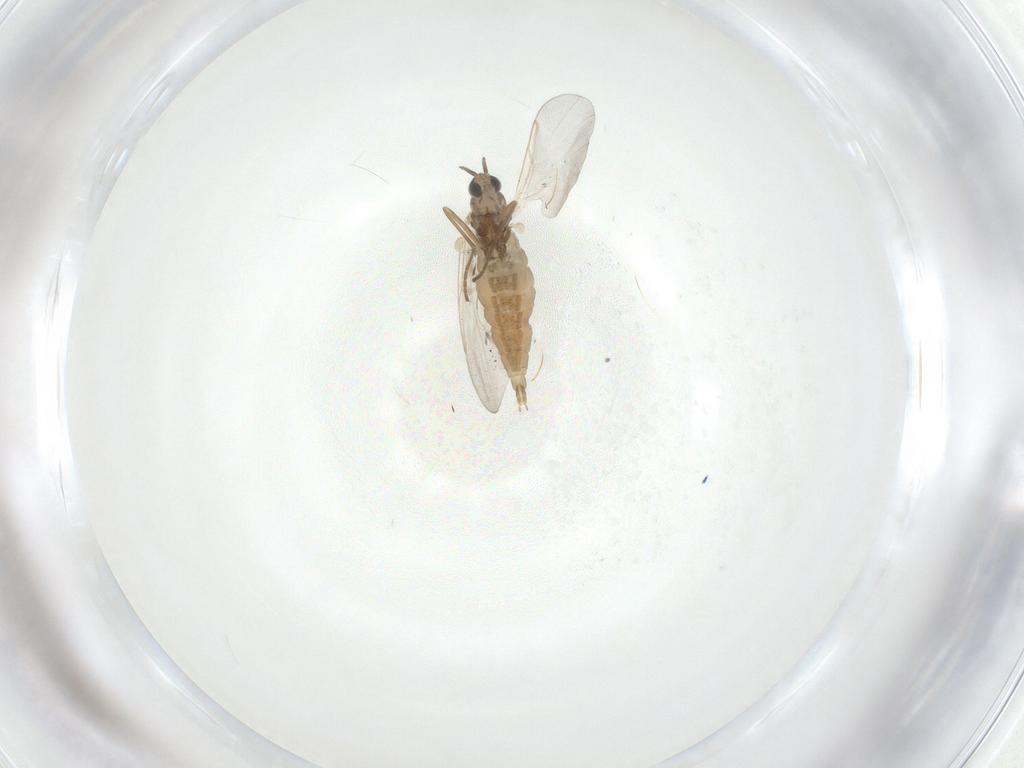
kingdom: Animalia
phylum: Arthropoda
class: Insecta
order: Diptera
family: Cecidomyiidae
